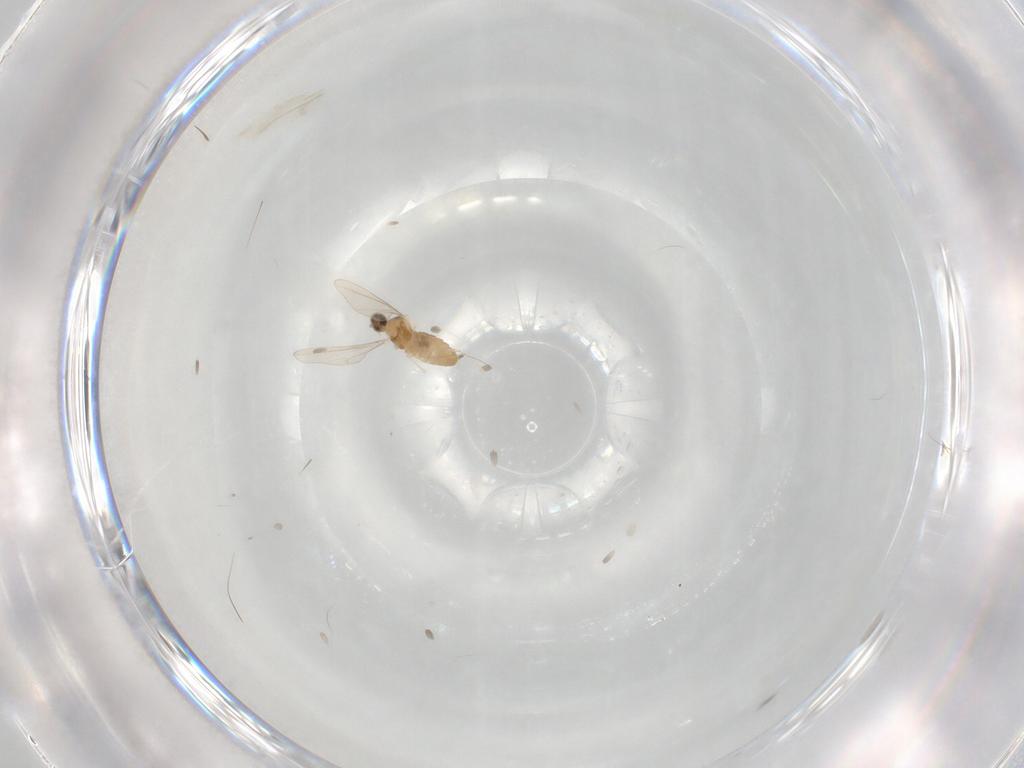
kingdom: Animalia
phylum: Arthropoda
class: Insecta
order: Diptera
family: Cecidomyiidae
